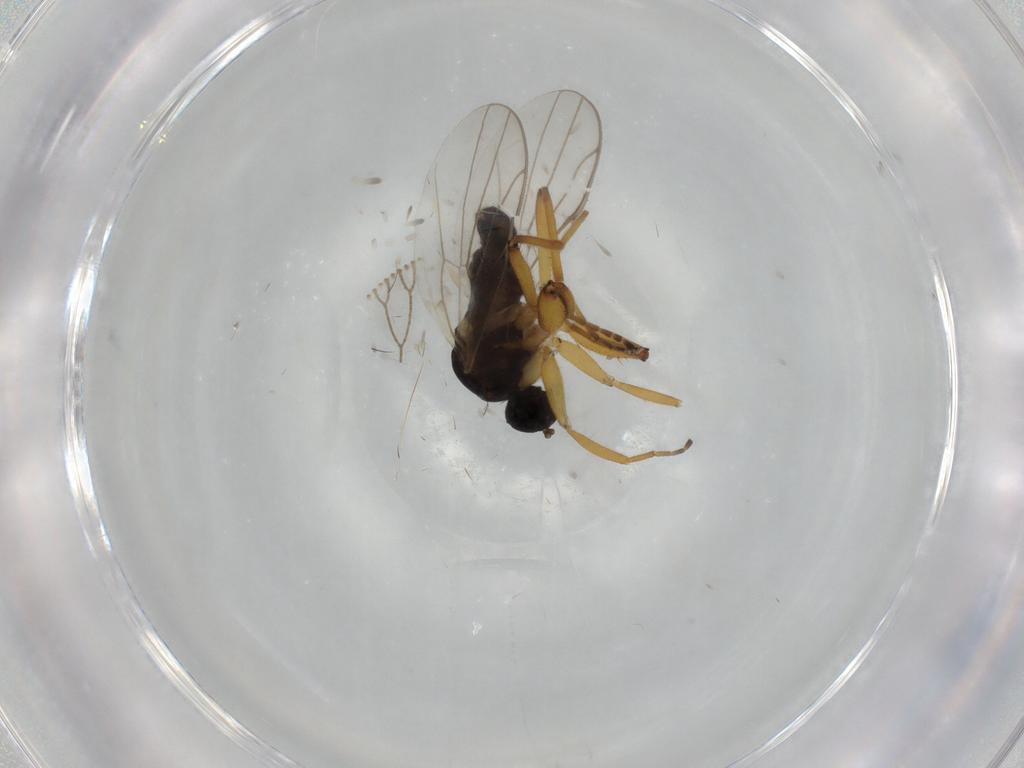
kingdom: Animalia
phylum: Arthropoda
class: Insecta
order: Diptera
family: Hybotidae
